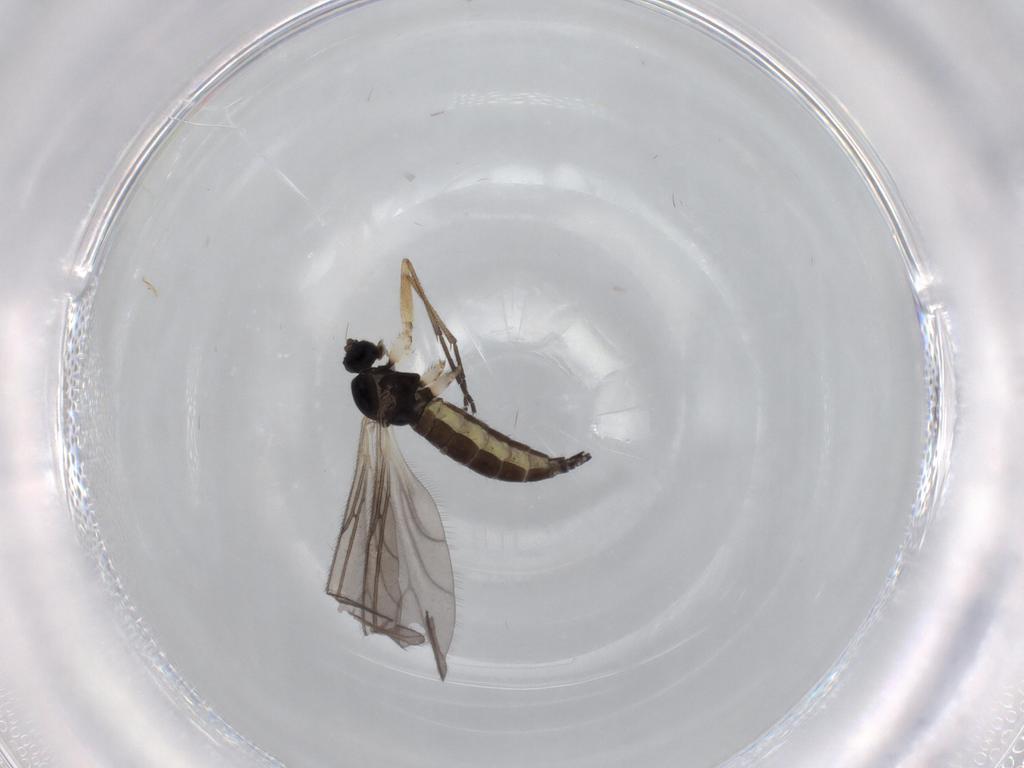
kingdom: Animalia
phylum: Arthropoda
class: Insecta
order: Diptera
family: Sciaridae
